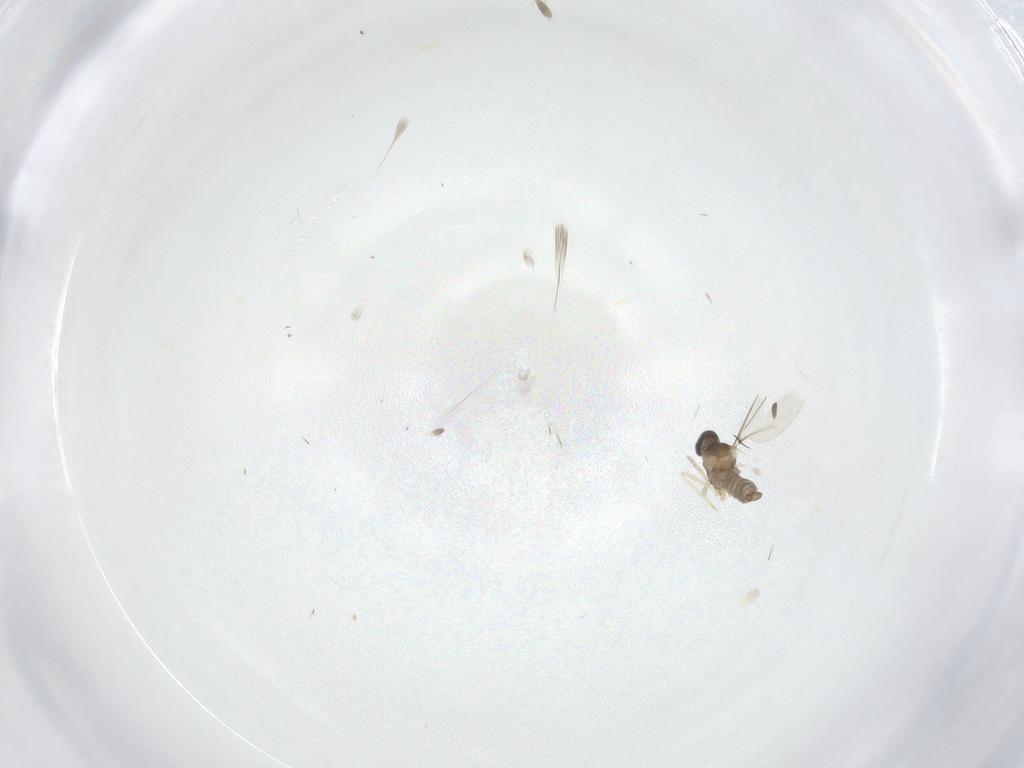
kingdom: Animalia
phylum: Arthropoda
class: Insecta
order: Diptera
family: Cecidomyiidae
